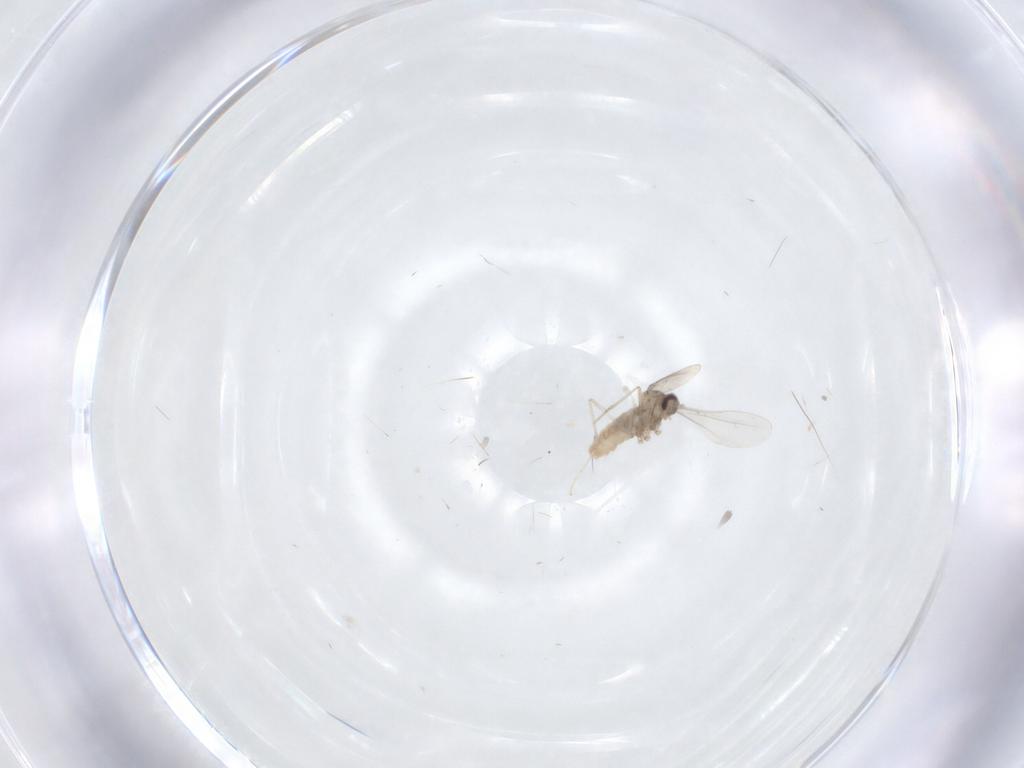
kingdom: Animalia
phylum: Arthropoda
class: Insecta
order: Diptera
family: Cecidomyiidae
